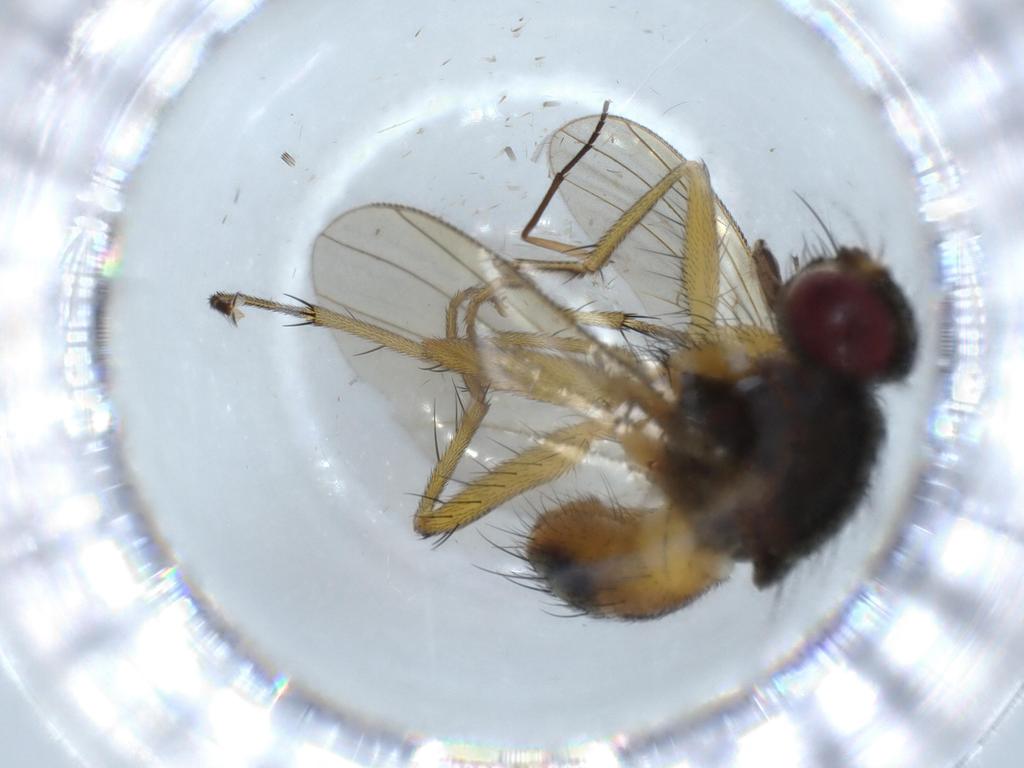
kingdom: Animalia
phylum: Arthropoda
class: Insecta
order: Diptera
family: Muscidae
